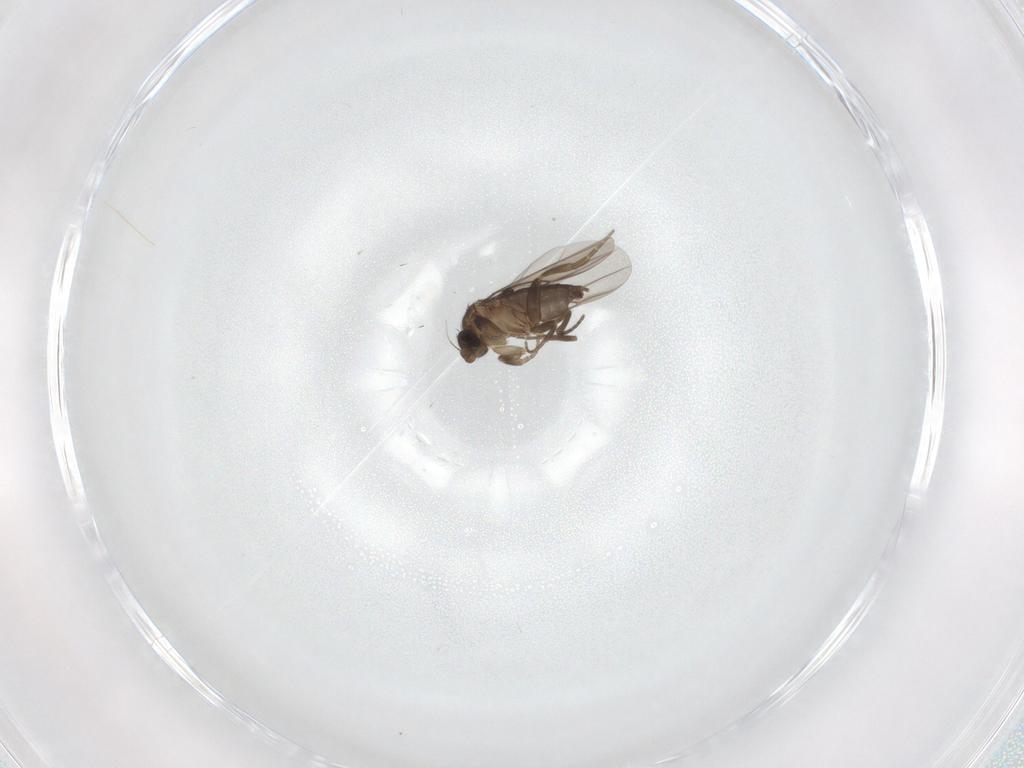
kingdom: Animalia
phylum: Arthropoda
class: Insecta
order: Diptera
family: Phoridae
